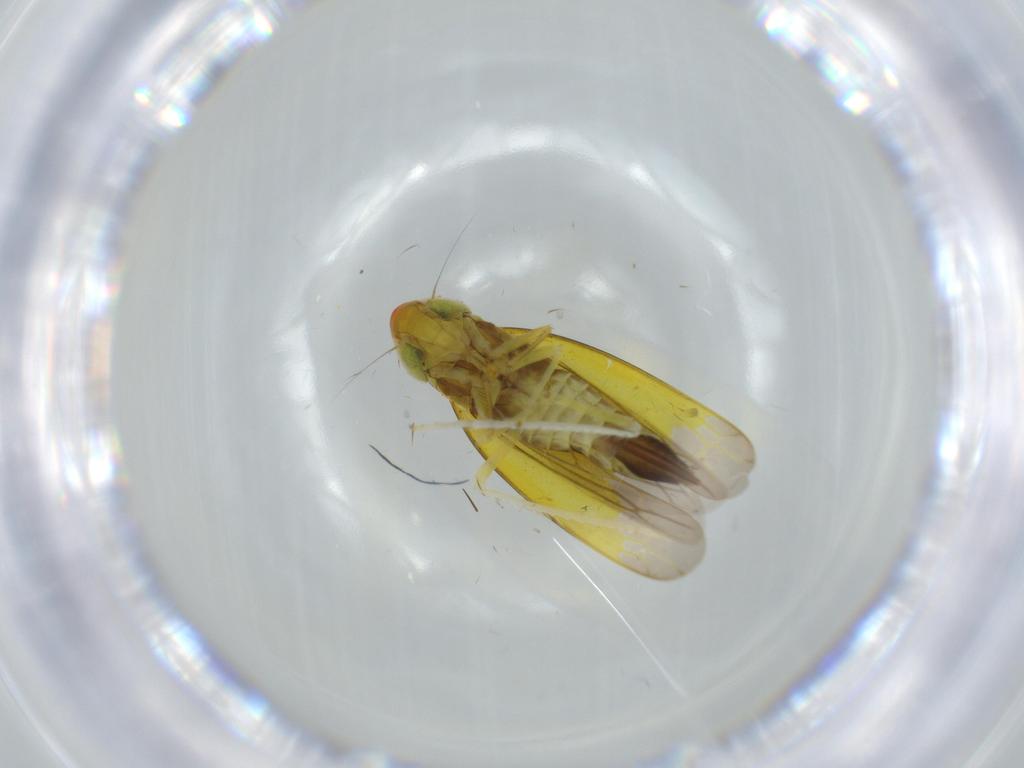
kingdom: Animalia
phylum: Arthropoda
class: Insecta
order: Hemiptera
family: Cicadellidae
